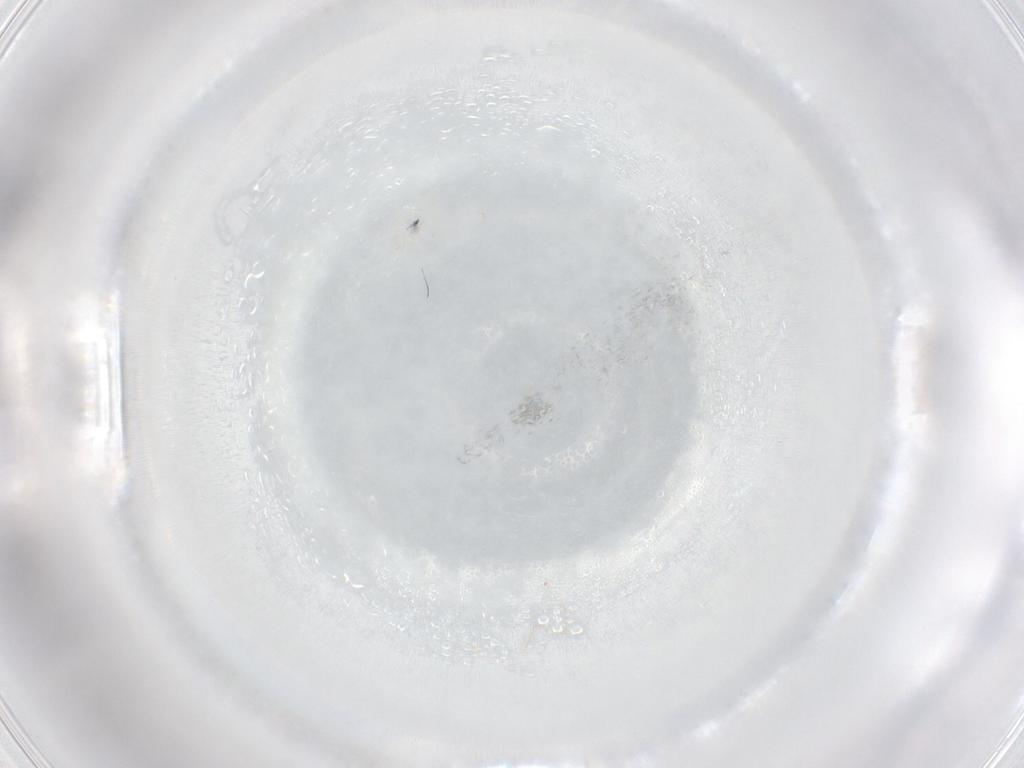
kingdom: Animalia
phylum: Arthropoda
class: Arachnida
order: Trombidiformes
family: Anystidae
